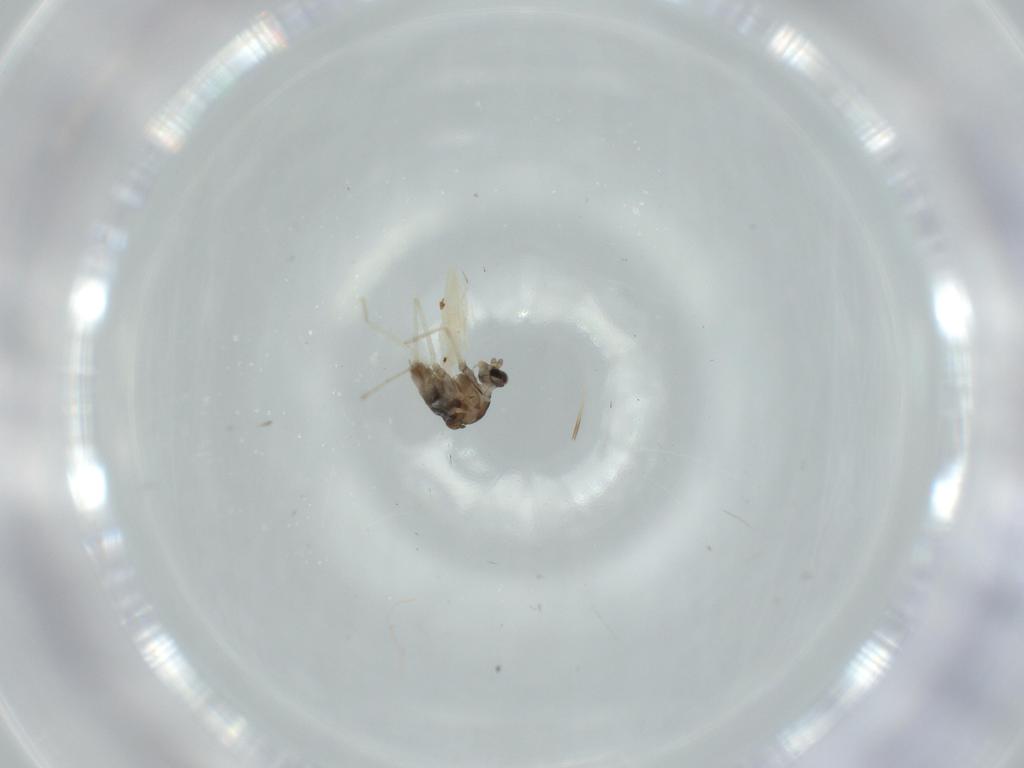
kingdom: Animalia
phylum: Arthropoda
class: Insecta
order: Diptera
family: Cecidomyiidae
